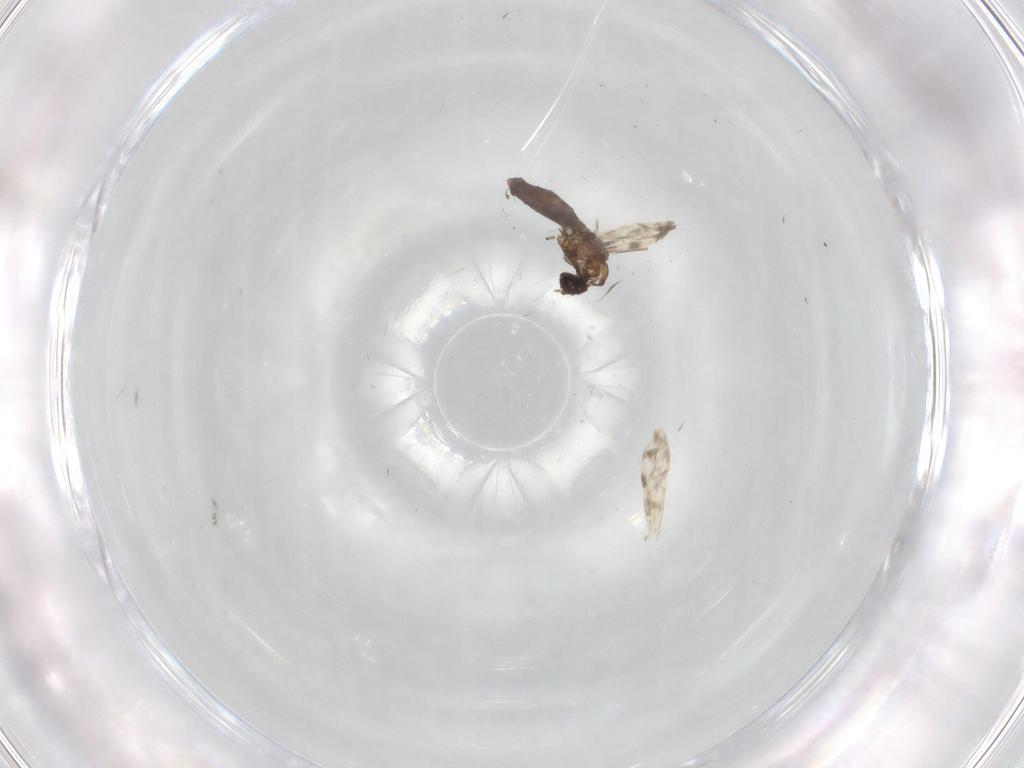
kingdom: Animalia
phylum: Arthropoda
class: Insecta
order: Diptera
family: Ceratopogonidae
